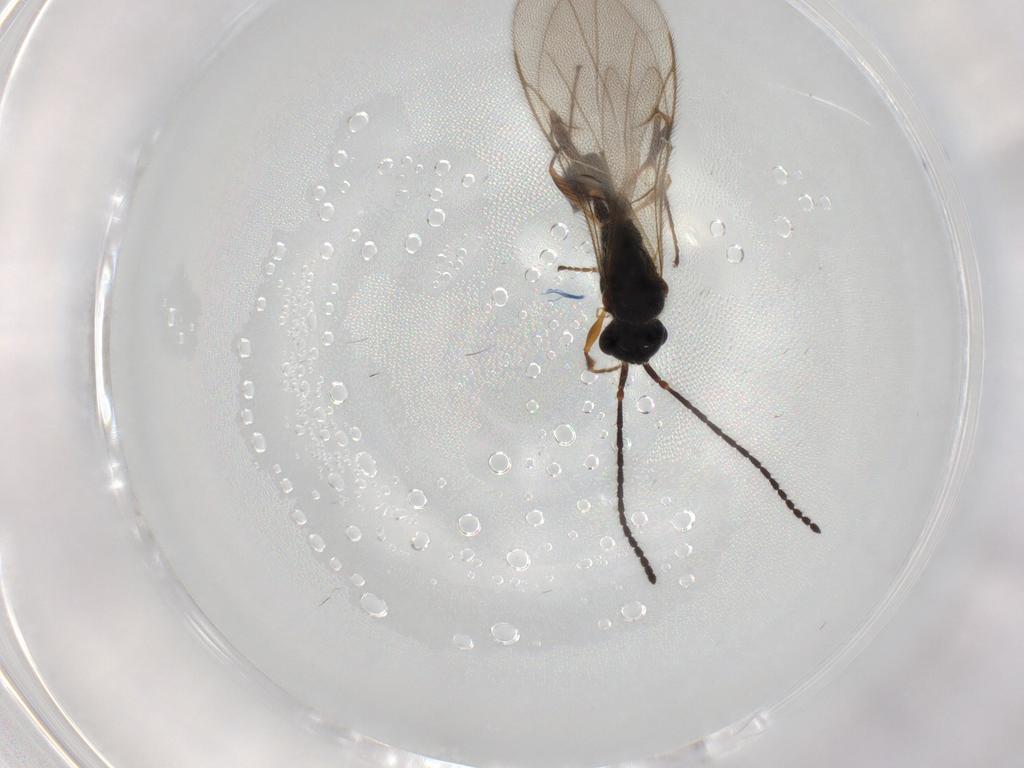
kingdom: Animalia
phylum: Arthropoda
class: Insecta
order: Hymenoptera
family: Diapriidae
